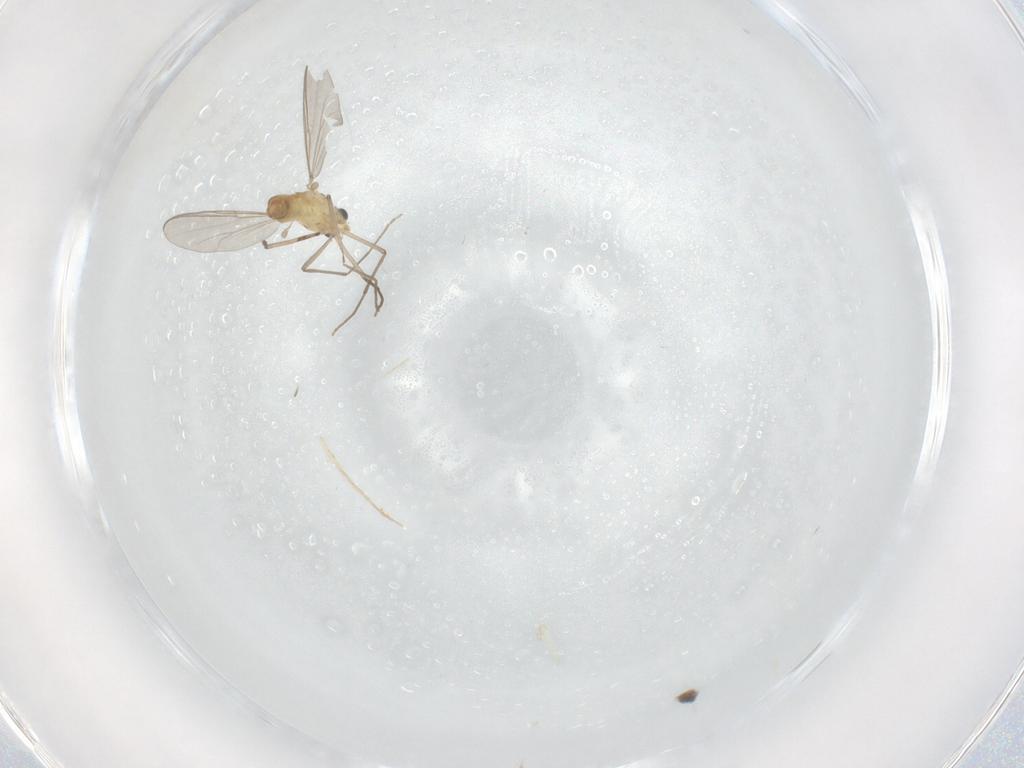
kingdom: Animalia
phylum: Arthropoda
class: Insecta
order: Diptera
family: Chironomidae
